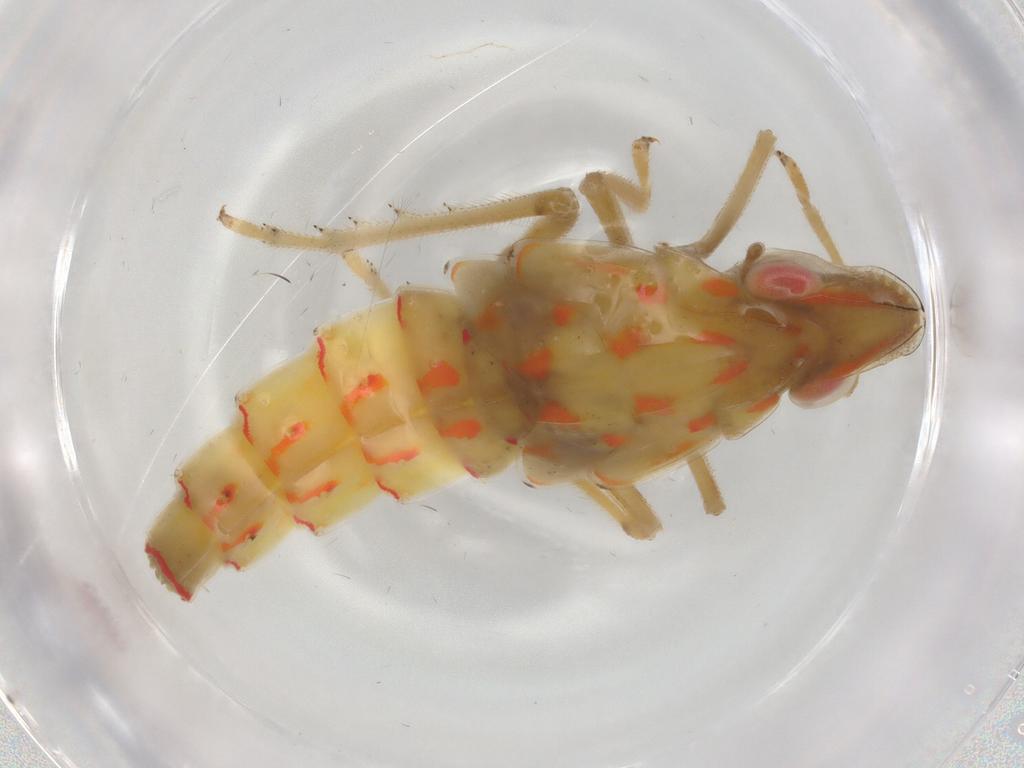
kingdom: Animalia
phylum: Arthropoda
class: Insecta
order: Hemiptera
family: Tropiduchidae
